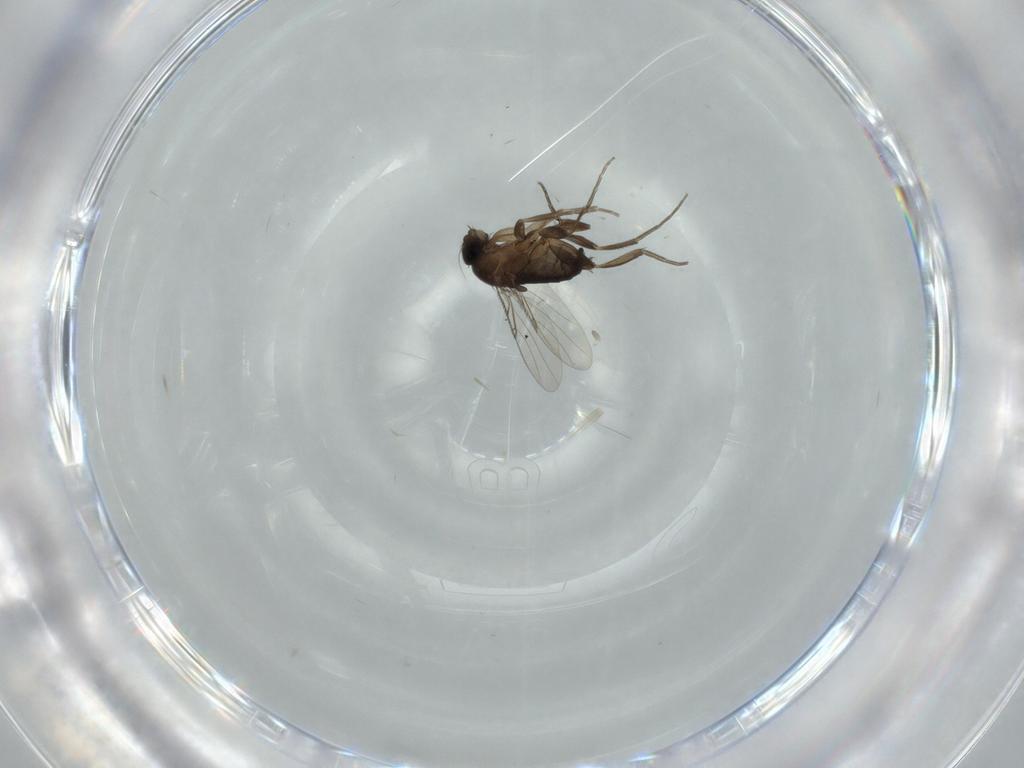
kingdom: Animalia
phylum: Arthropoda
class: Insecta
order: Diptera
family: Phoridae
